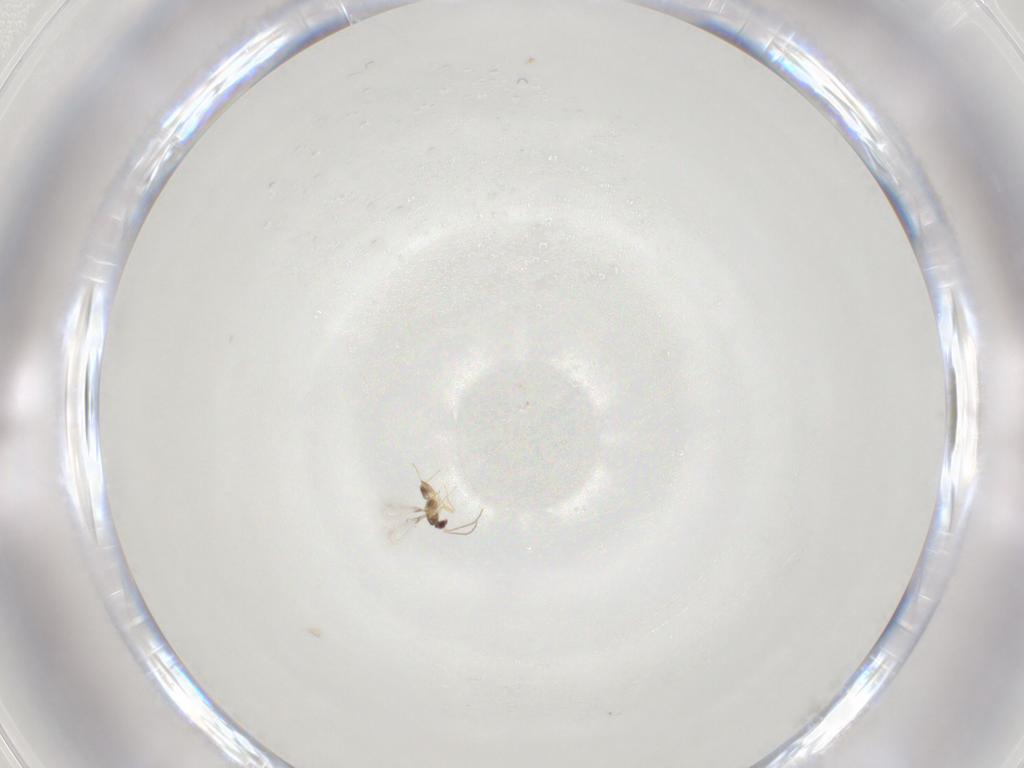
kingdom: Animalia
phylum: Arthropoda
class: Insecta
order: Hymenoptera
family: Mymaridae
